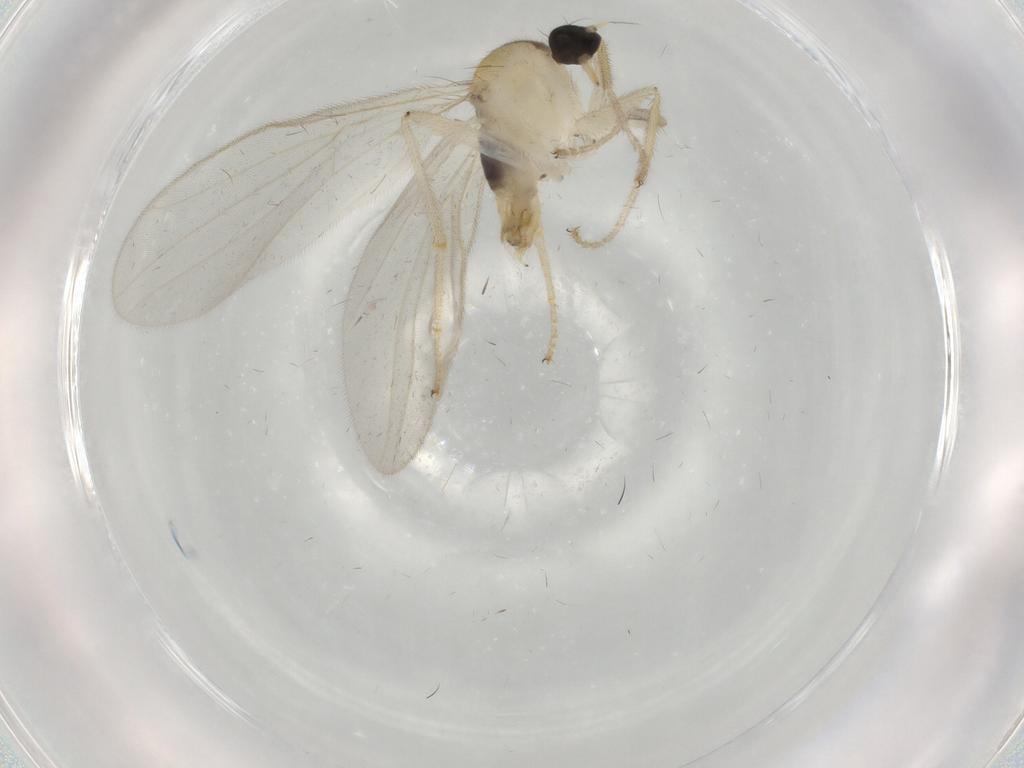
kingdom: Animalia
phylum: Arthropoda
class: Insecta
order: Diptera
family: Hybotidae
